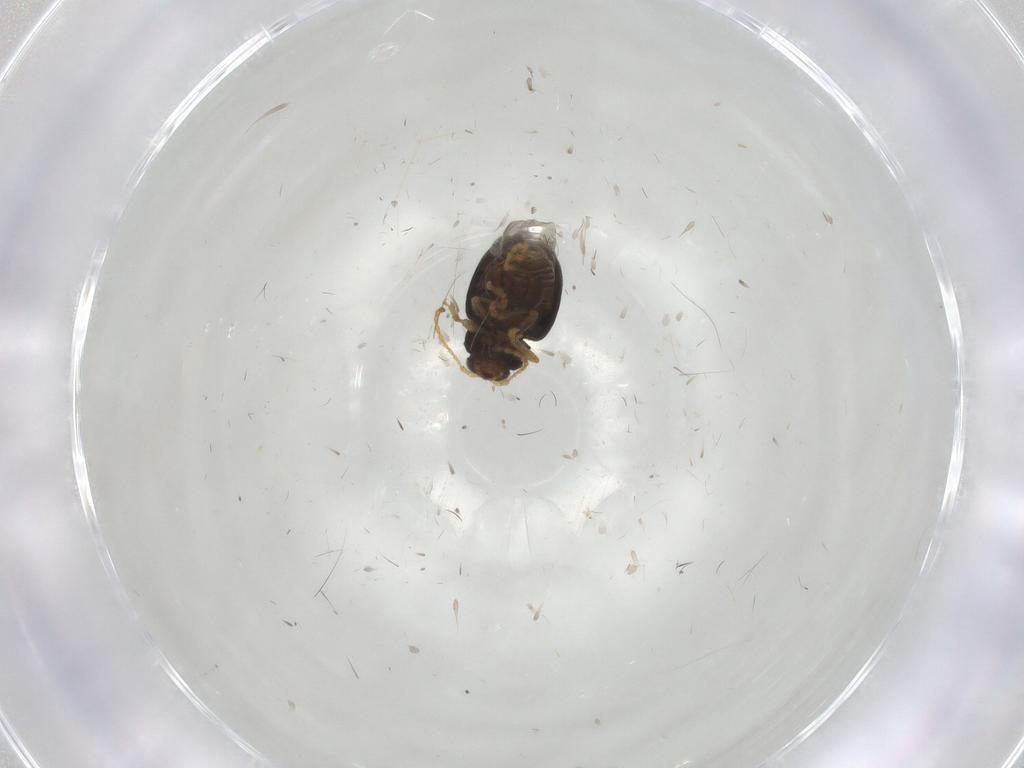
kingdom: Animalia
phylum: Arthropoda
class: Insecta
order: Coleoptera
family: Chrysomelidae
